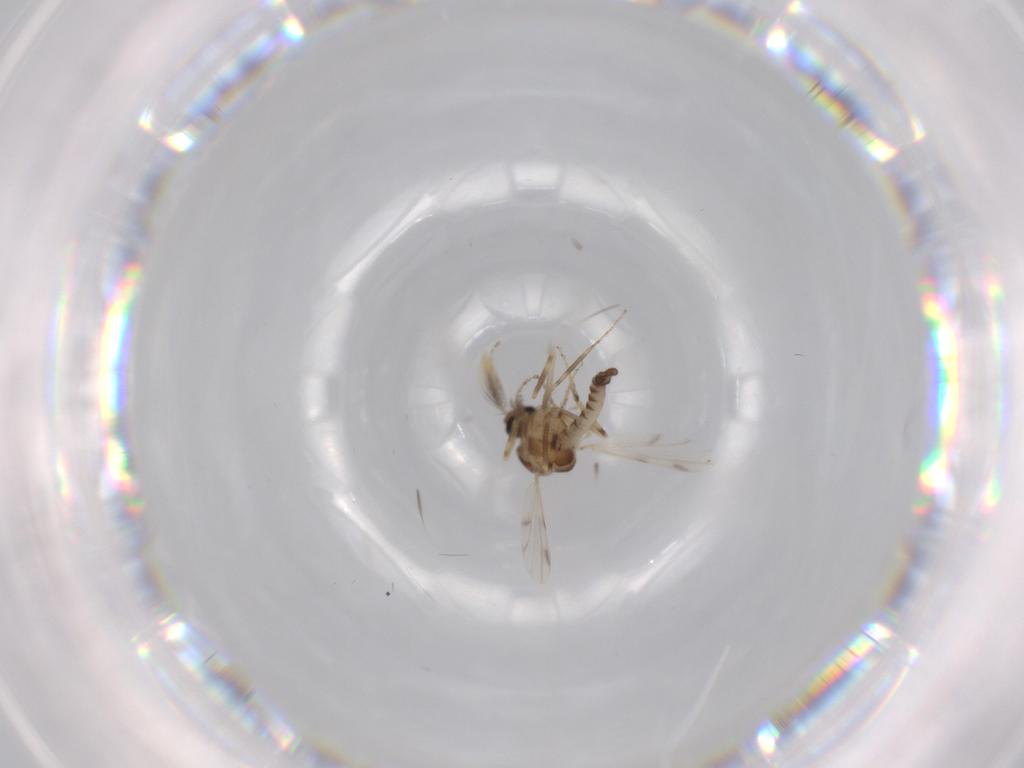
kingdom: Animalia
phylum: Arthropoda
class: Insecta
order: Diptera
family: Ceratopogonidae
